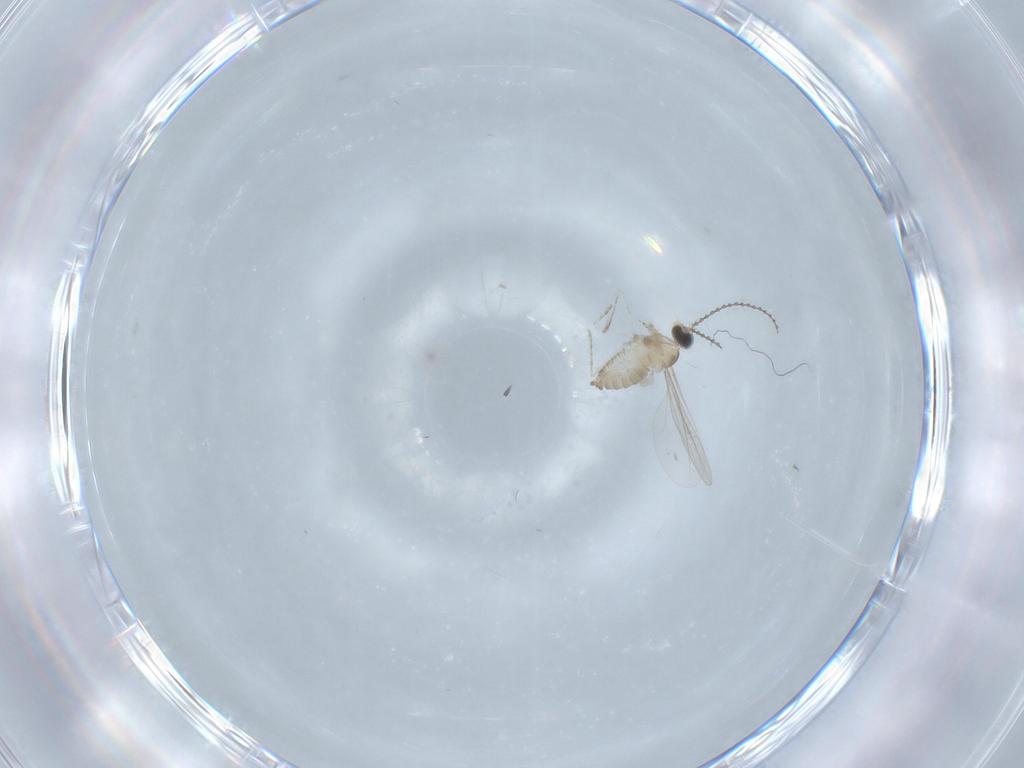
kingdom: Animalia
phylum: Arthropoda
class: Insecta
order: Diptera
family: Cecidomyiidae
